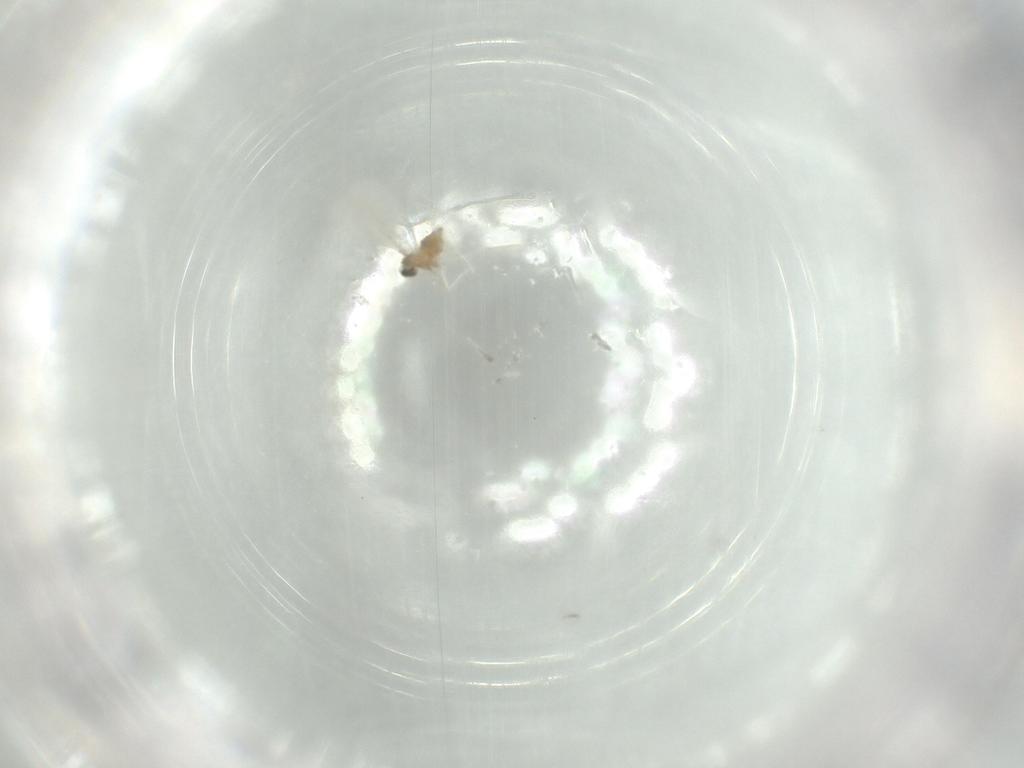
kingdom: Animalia
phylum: Arthropoda
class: Insecta
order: Diptera
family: Cecidomyiidae
